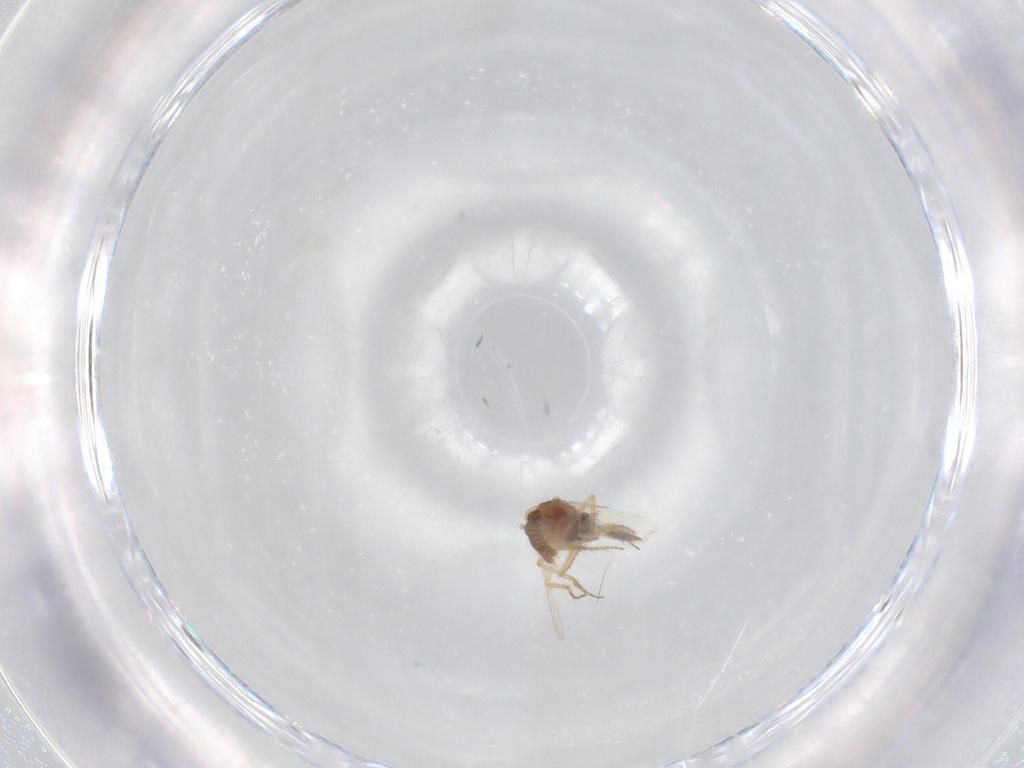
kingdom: Animalia
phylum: Arthropoda
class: Insecta
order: Diptera
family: Ceratopogonidae
